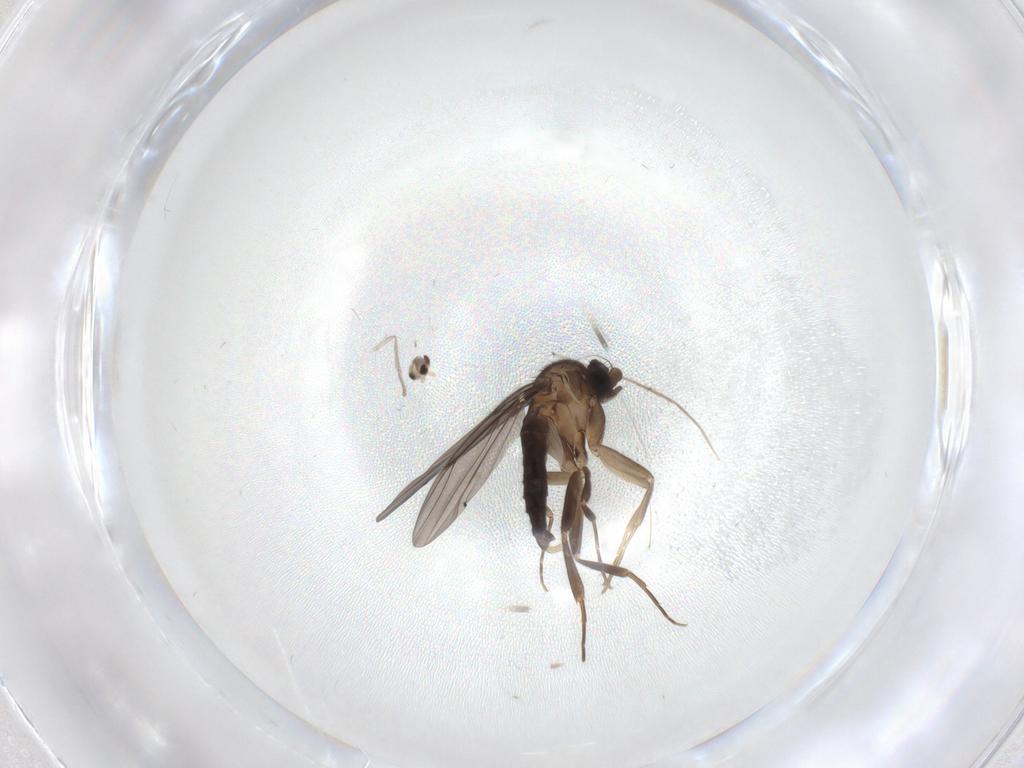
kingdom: Animalia
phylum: Arthropoda
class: Insecta
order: Diptera
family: Cecidomyiidae
